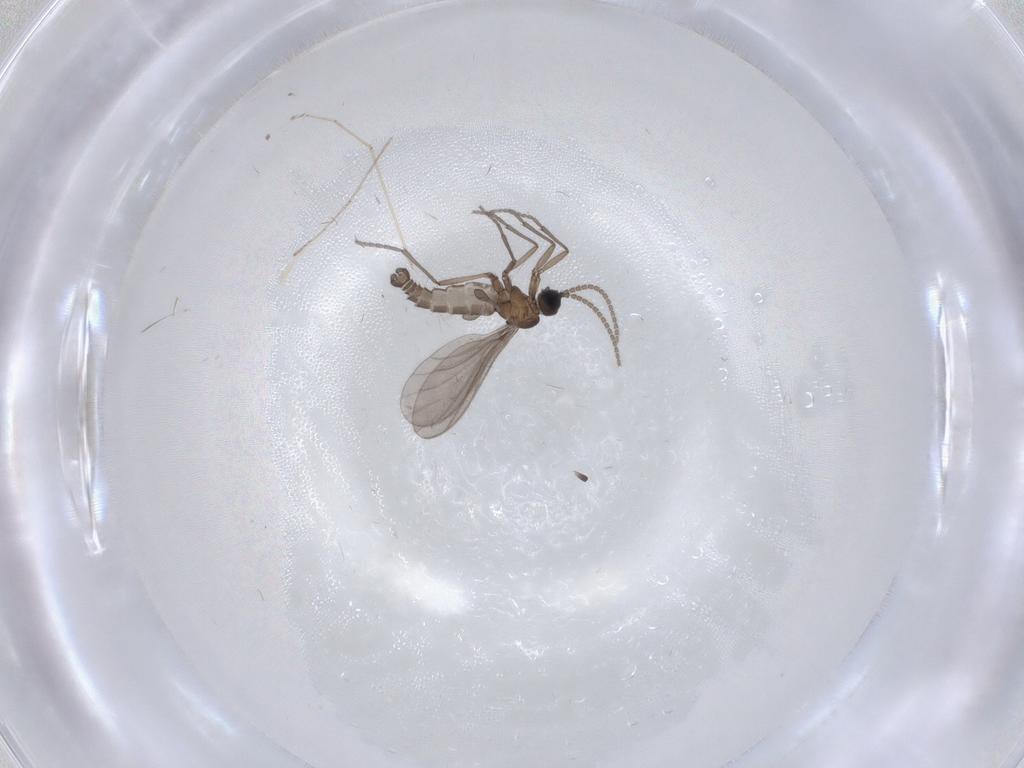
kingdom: Animalia
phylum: Arthropoda
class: Insecta
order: Diptera
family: Sciaridae
